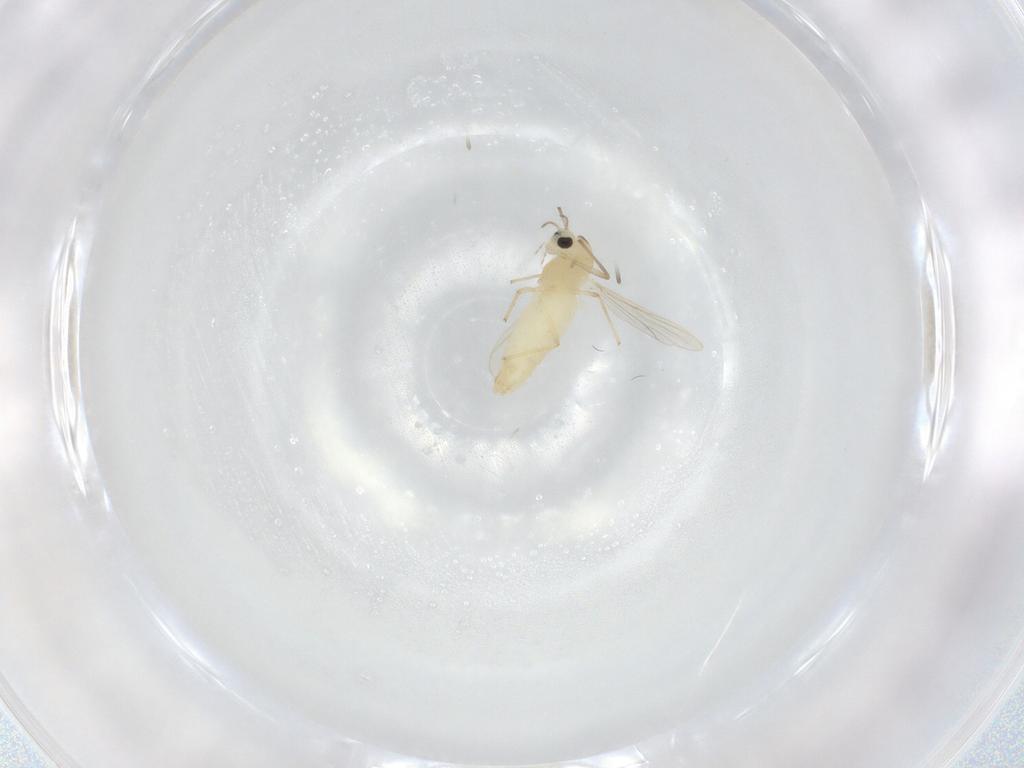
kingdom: Animalia
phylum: Arthropoda
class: Insecta
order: Diptera
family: Chironomidae
